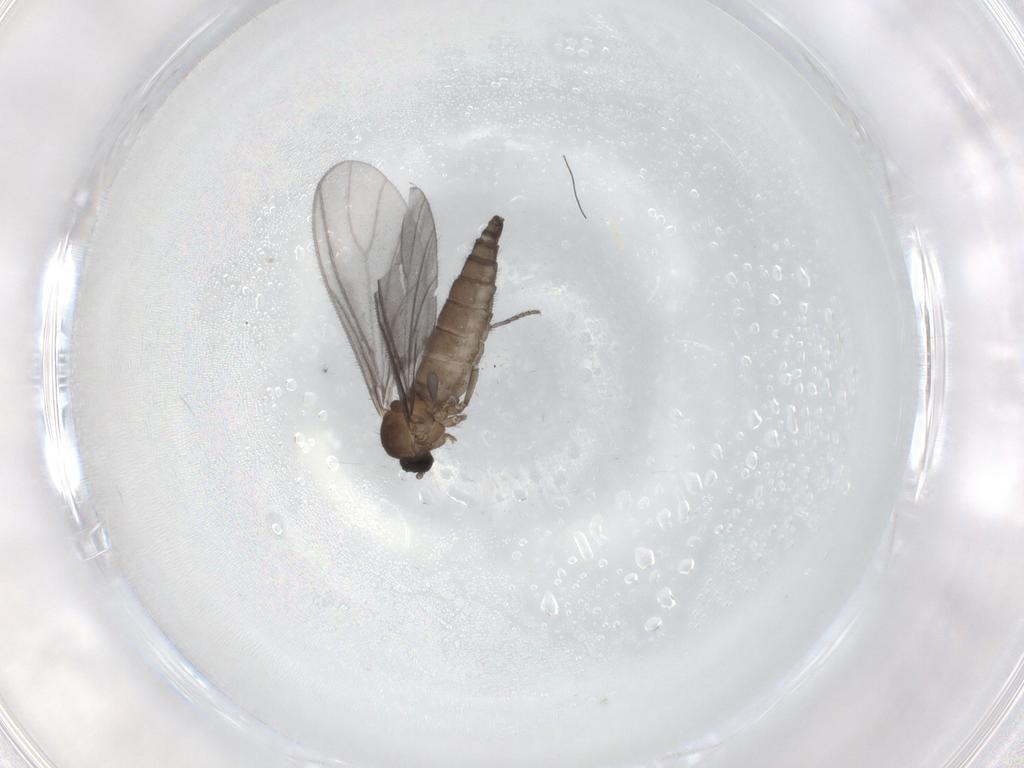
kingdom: Animalia
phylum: Arthropoda
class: Insecta
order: Diptera
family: Sciaridae
